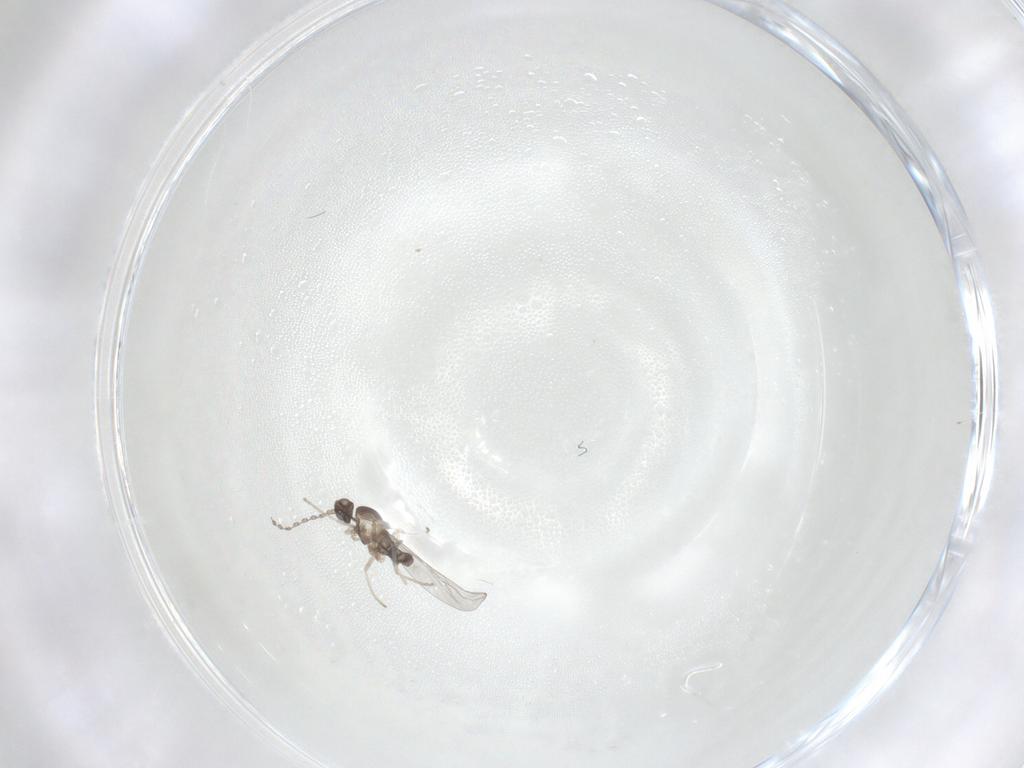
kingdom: Animalia
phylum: Arthropoda
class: Insecta
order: Diptera
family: Cecidomyiidae
